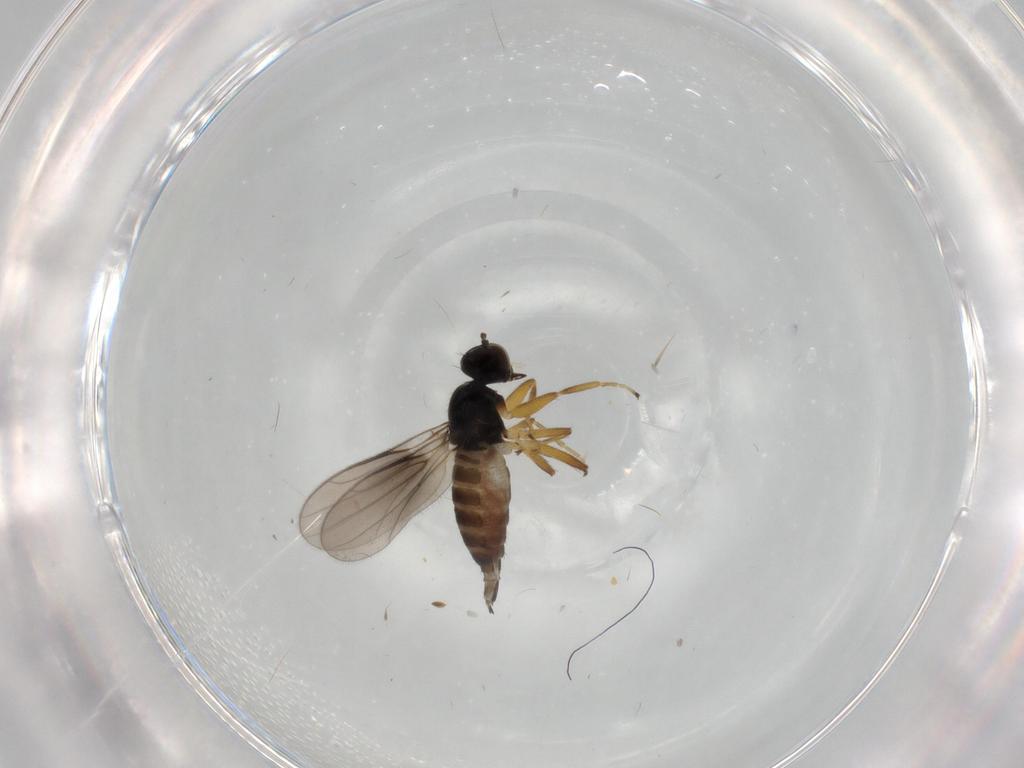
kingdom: Animalia
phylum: Arthropoda
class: Insecta
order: Diptera
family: Hybotidae
